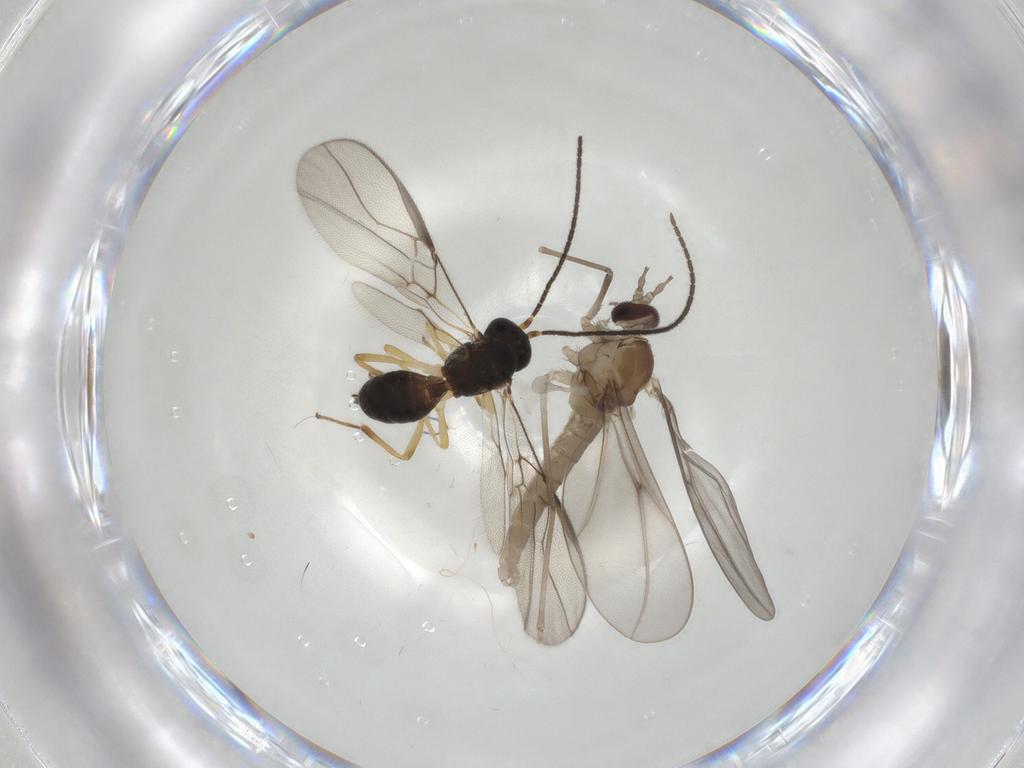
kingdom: Animalia
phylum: Arthropoda
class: Insecta
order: Diptera
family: Cecidomyiidae
